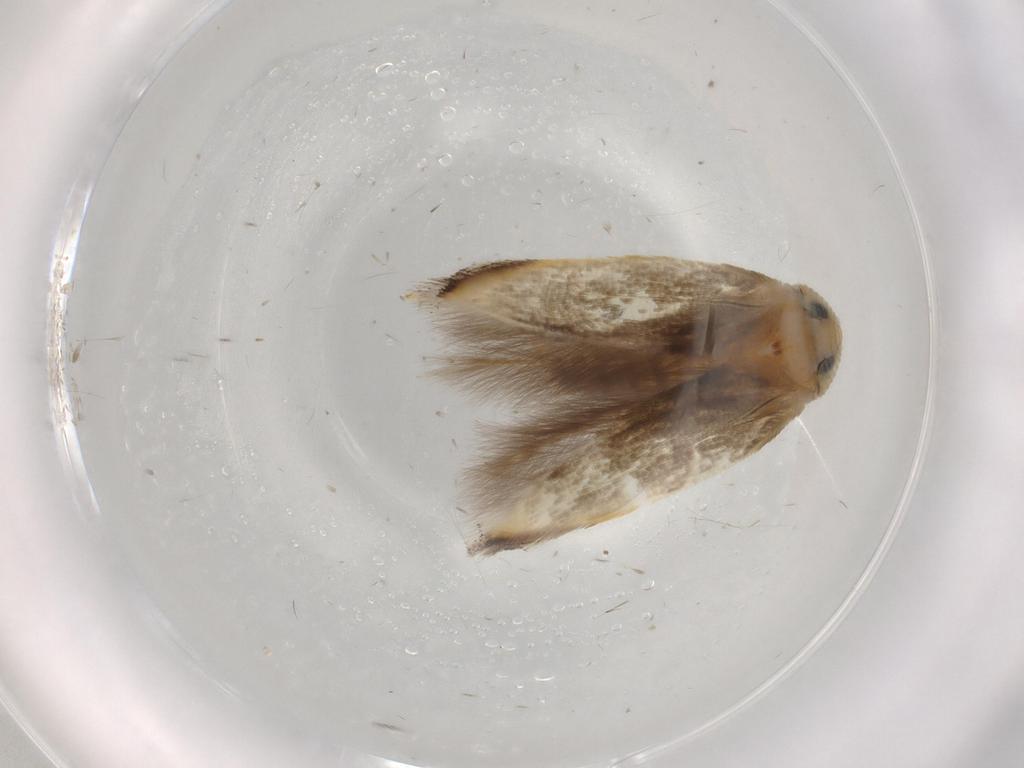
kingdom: Animalia
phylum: Arthropoda
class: Insecta
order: Lepidoptera
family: Opostegidae
